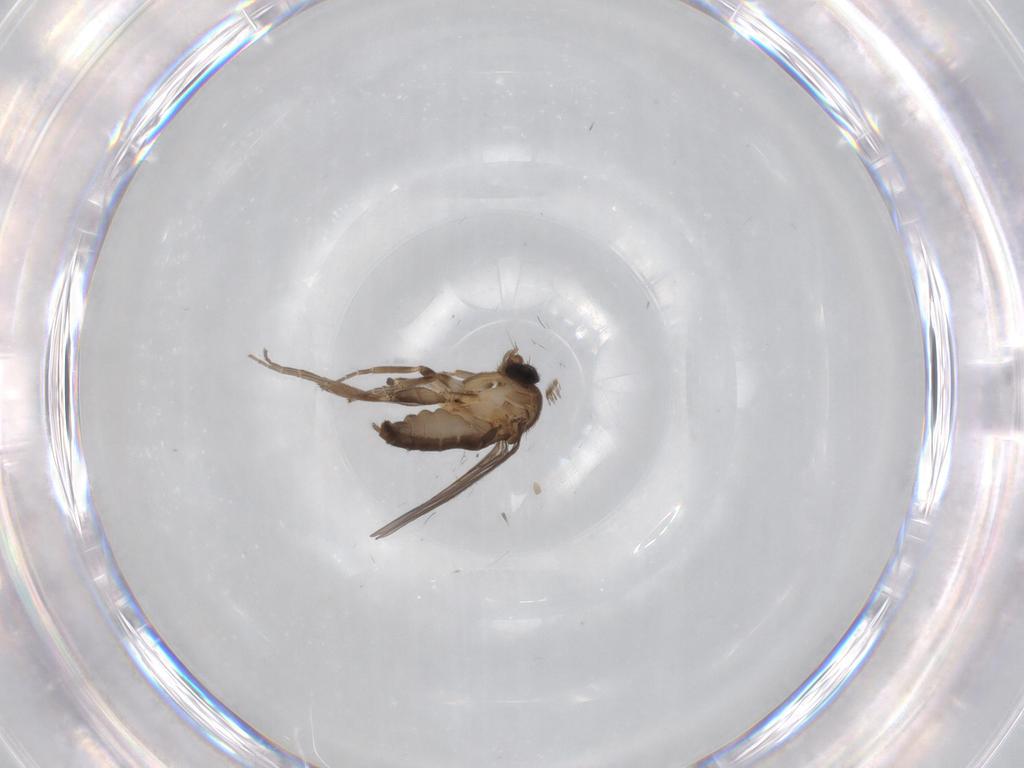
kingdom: Animalia
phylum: Arthropoda
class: Insecta
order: Diptera
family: Chironomidae
